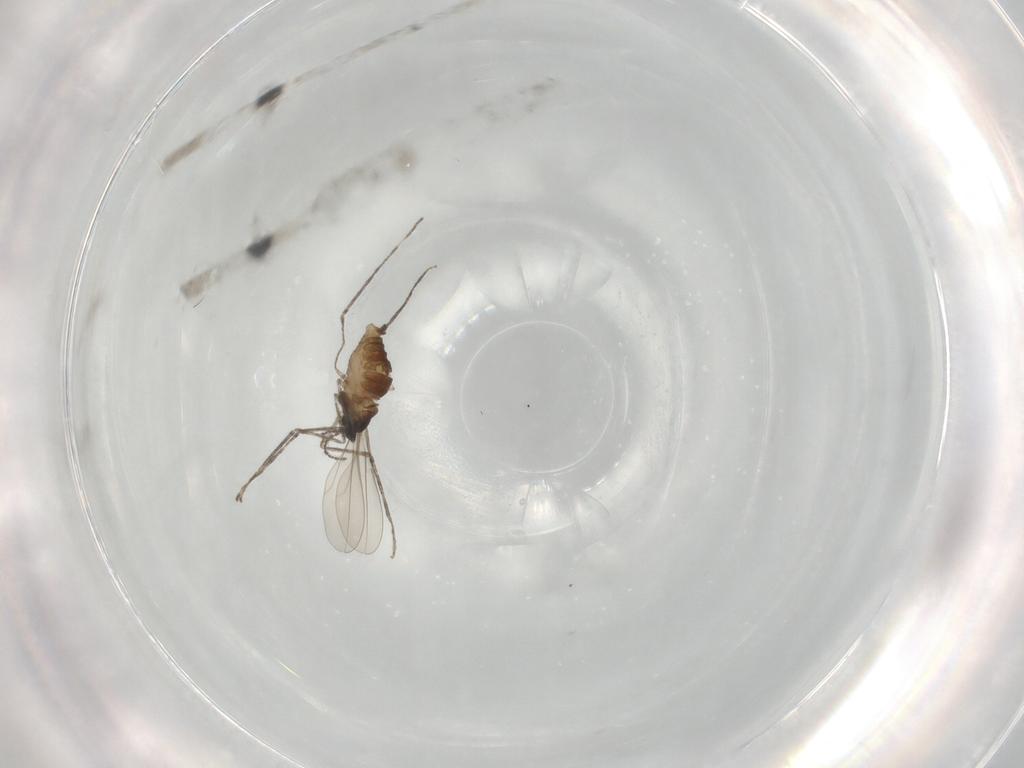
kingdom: Animalia
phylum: Arthropoda
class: Insecta
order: Diptera
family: Cecidomyiidae
